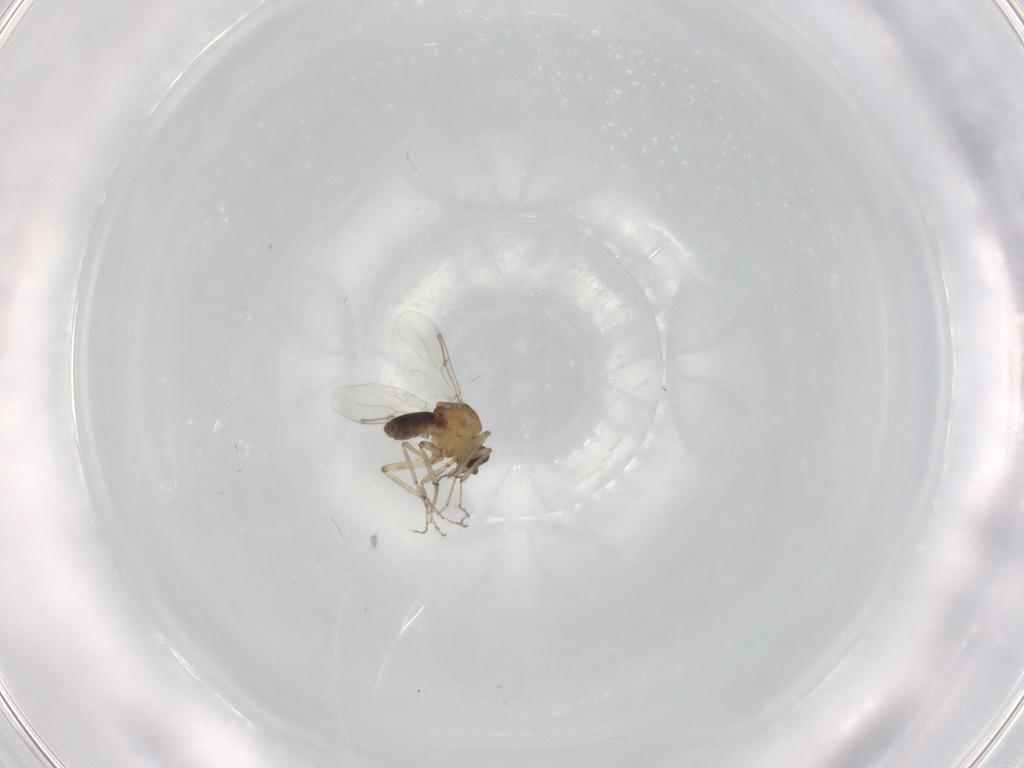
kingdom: Animalia
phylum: Arthropoda
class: Insecta
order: Diptera
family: Ceratopogonidae
